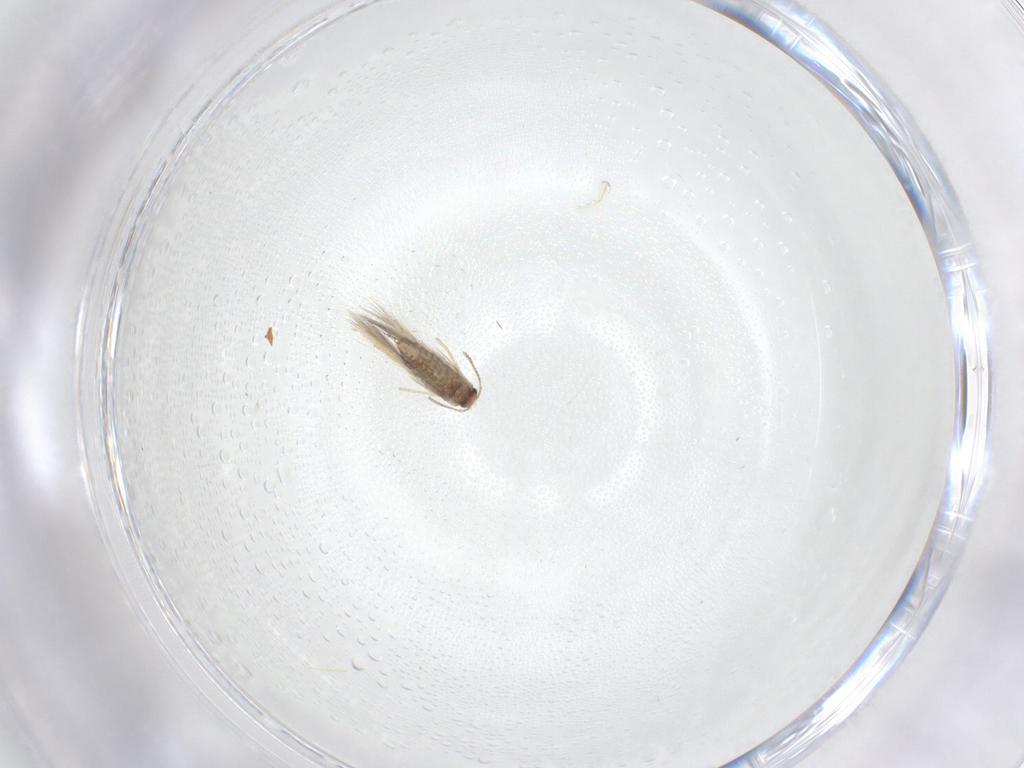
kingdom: Animalia
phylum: Arthropoda
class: Insecta
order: Lepidoptera
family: Nepticulidae
